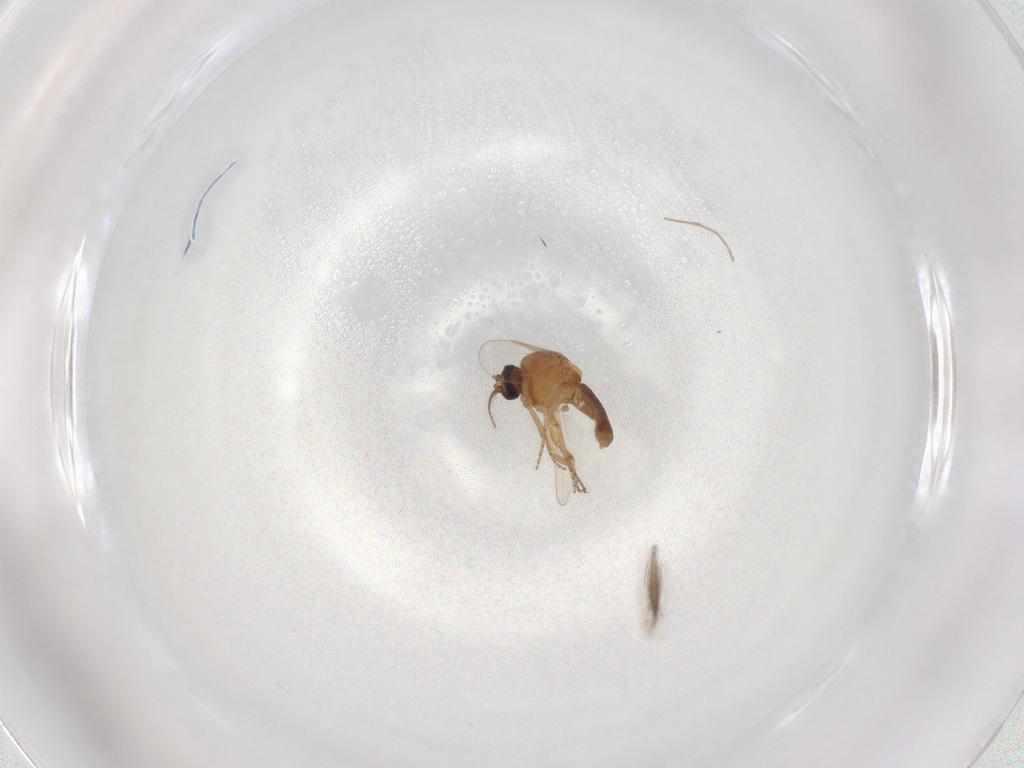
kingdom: Animalia
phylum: Arthropoda
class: Insecta
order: Diptera
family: Ceratopogonidae
